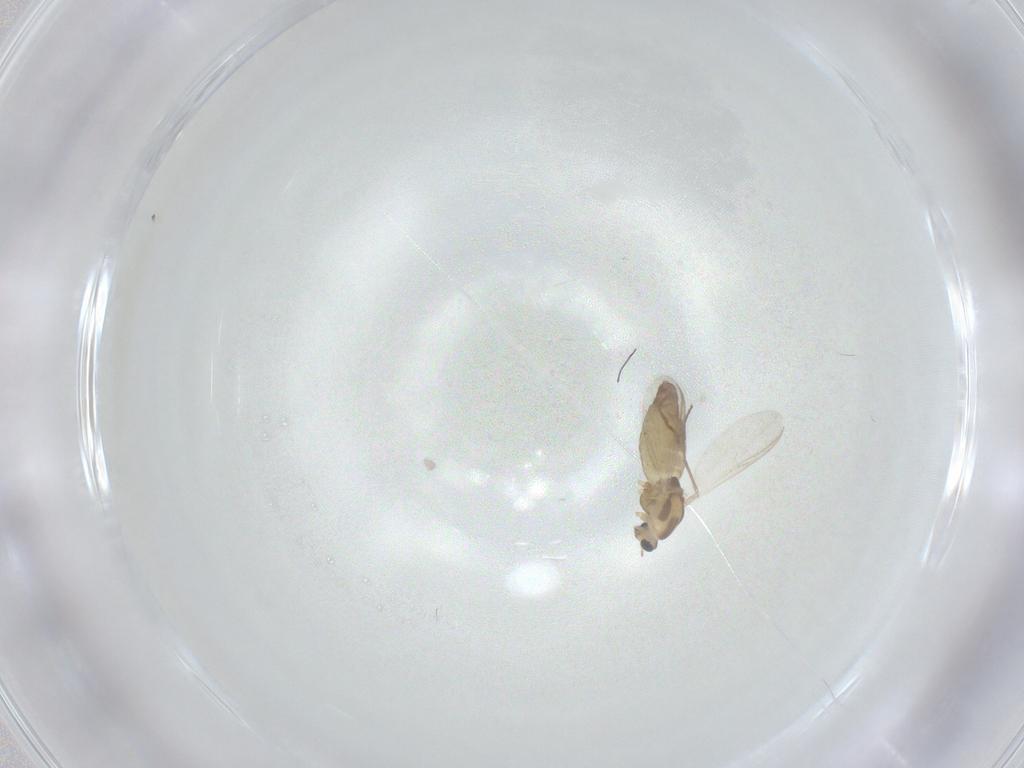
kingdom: Animalia
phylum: Arthropoda
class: Insecta
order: Diptera
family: Chironomidae
